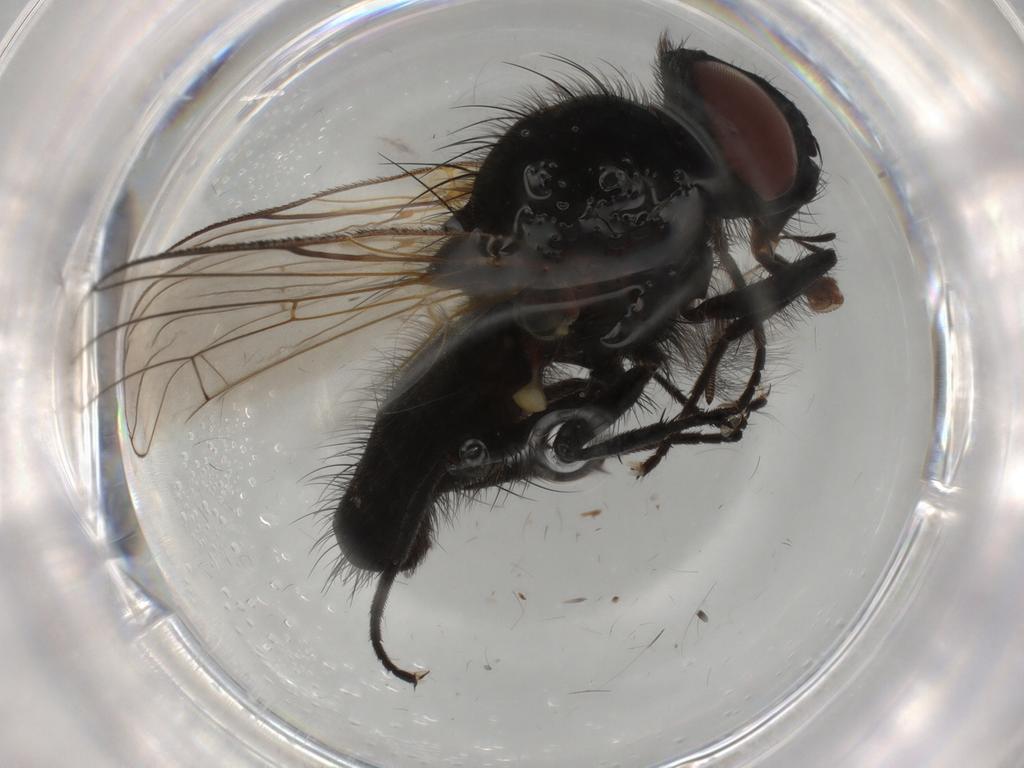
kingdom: Animalia
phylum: Arthropoda
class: Insecta
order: Diptera
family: Anthomyiidae
